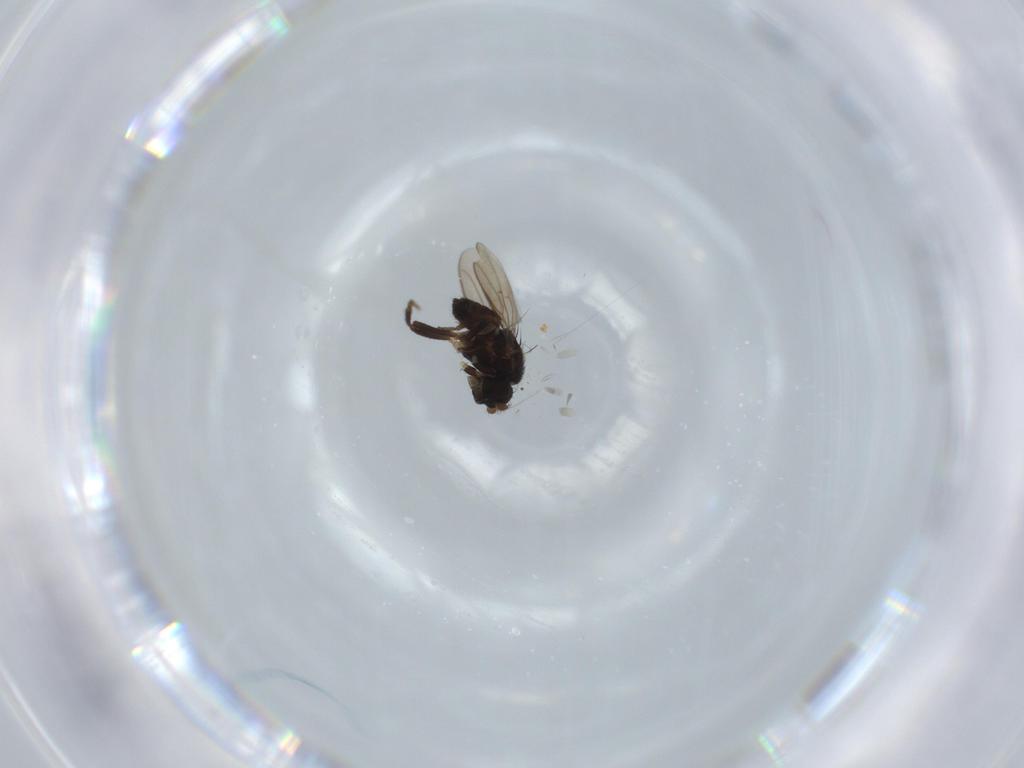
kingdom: Animalia
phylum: Arthropoda
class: Insecta
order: Diptera
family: Sphaeroceridae
